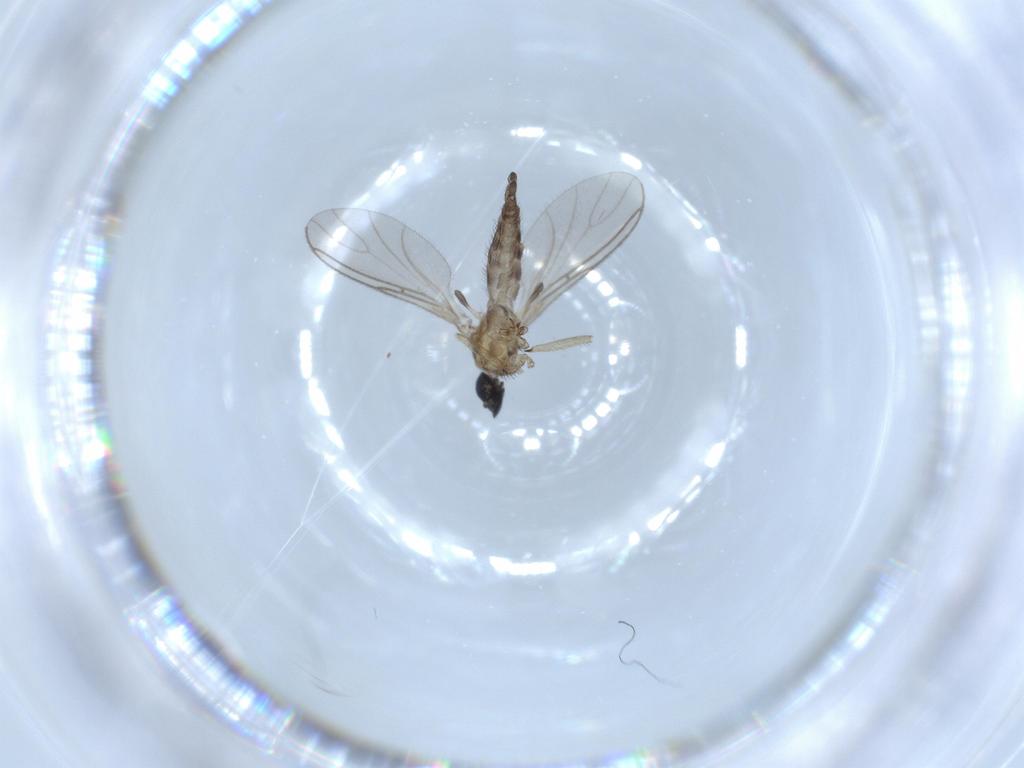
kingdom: Animalia
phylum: Arthropoda
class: Insecta
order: Diptera
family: Sciaridae
